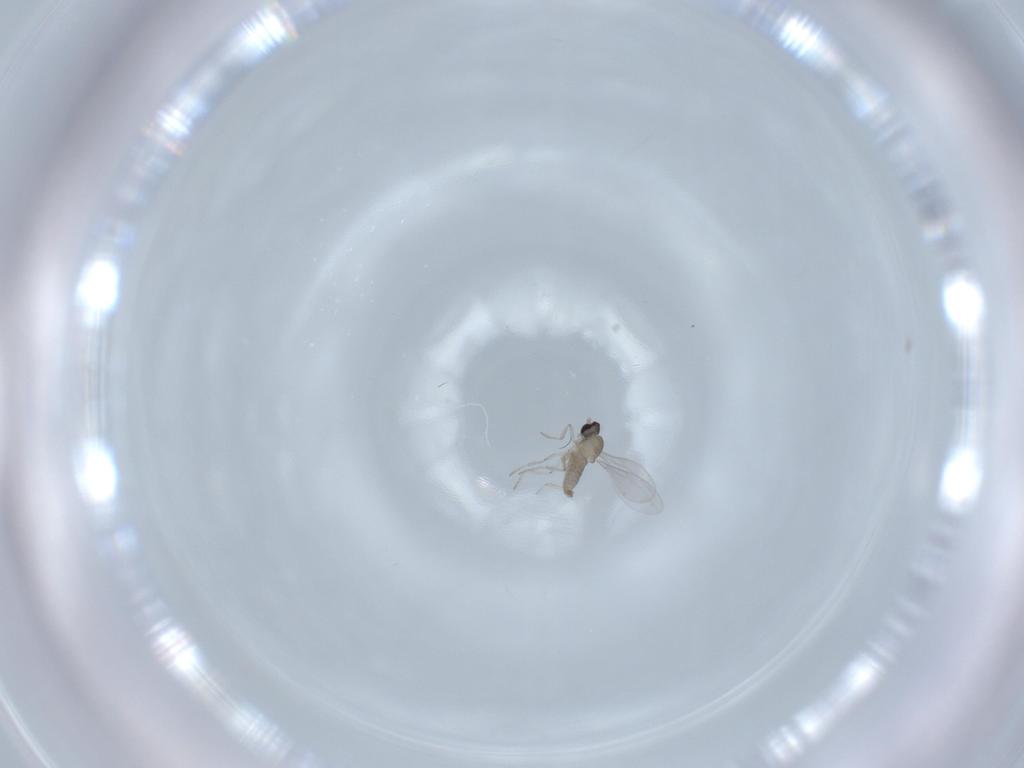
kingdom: Animalia
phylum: Arthropoda
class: Insecta
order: Diptera
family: Cecidomyiidae
